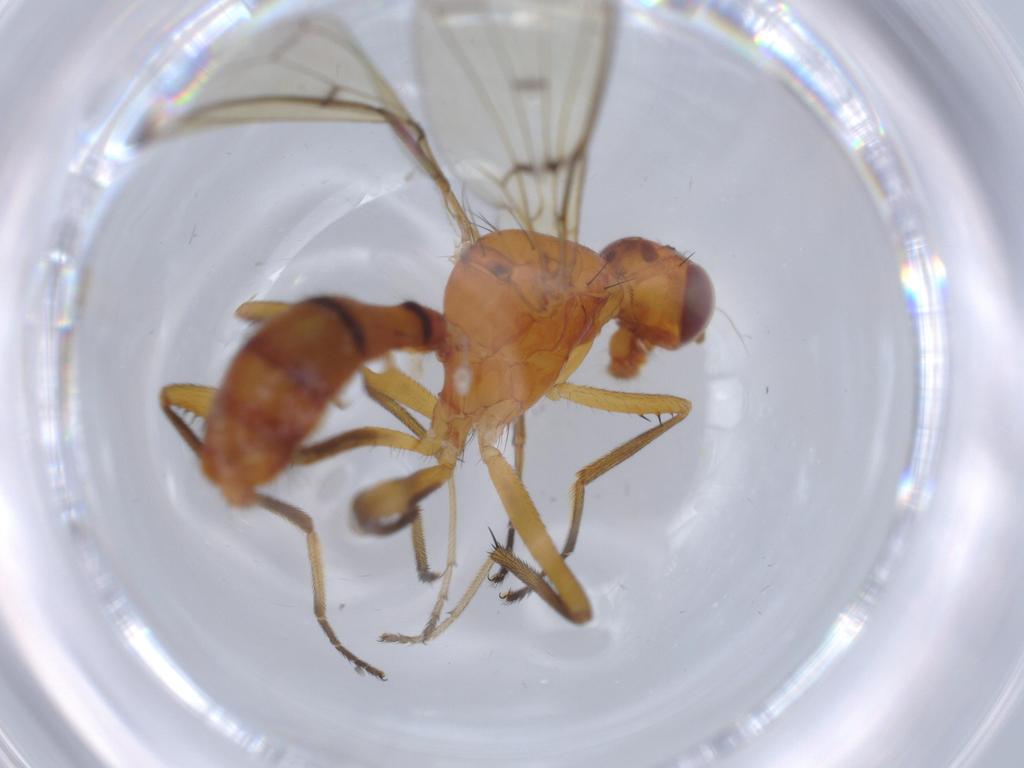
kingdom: Animalia
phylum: Arthropoda
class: Insecta
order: Diptera
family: Richardiidae
